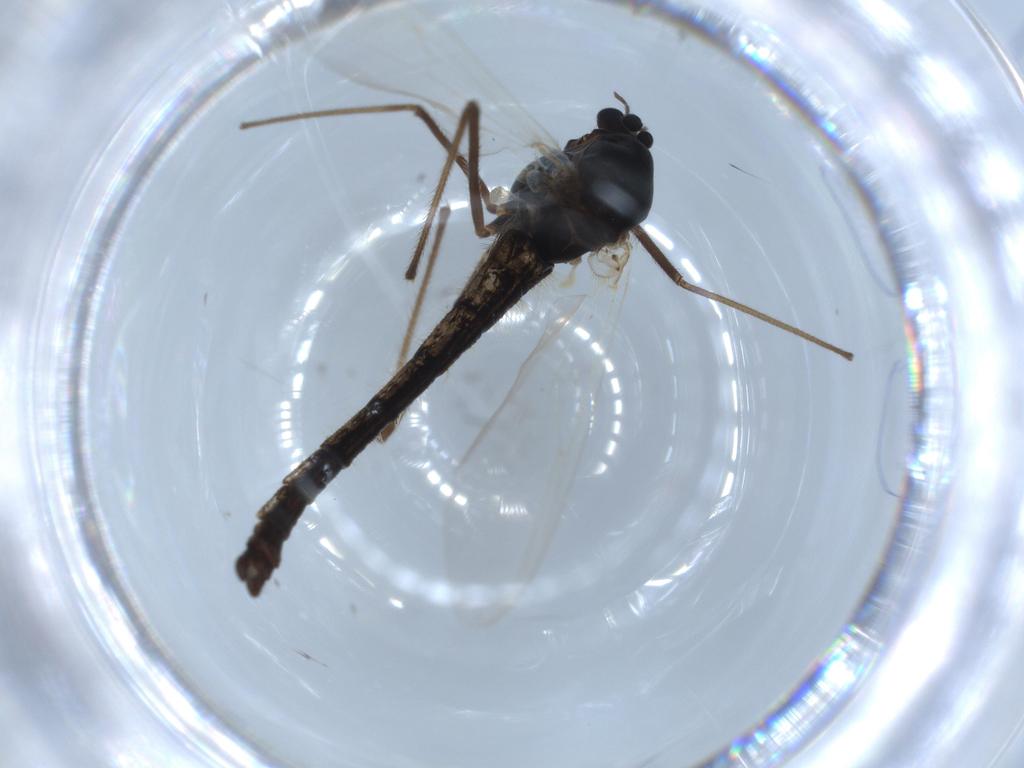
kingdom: Animalia
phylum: Arthropoda
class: Insecta
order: Diptera
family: Chironomidae
